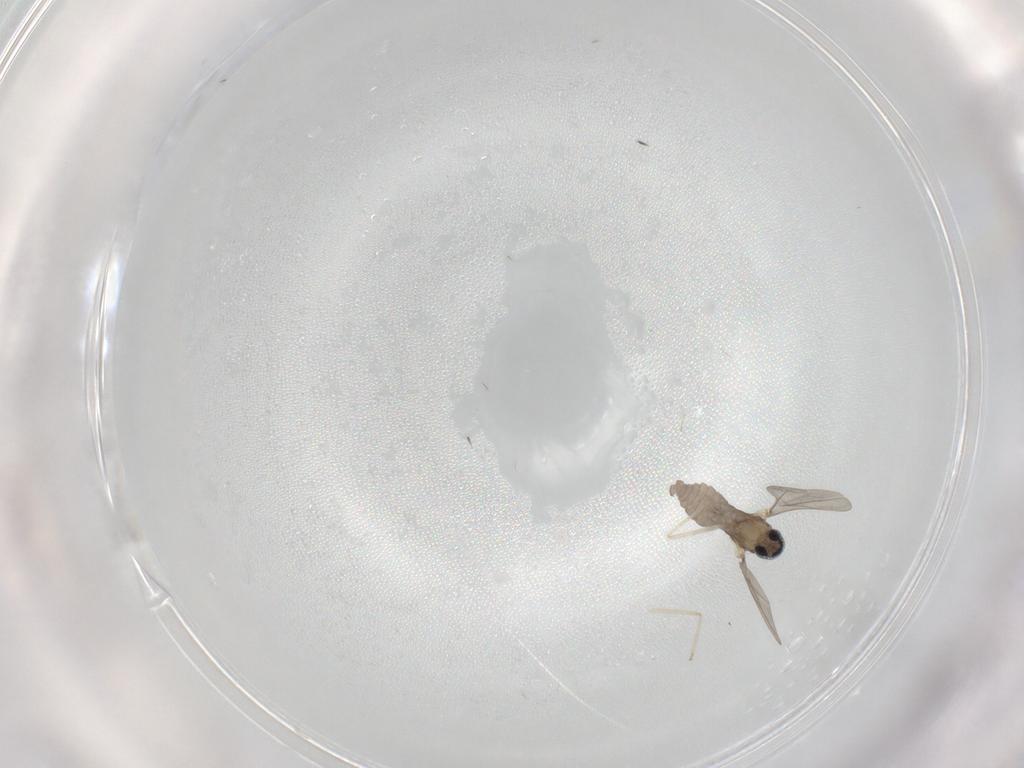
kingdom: Animalia
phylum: Arthropoda
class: Insecta
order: Diptera
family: Cecidomyiidae
